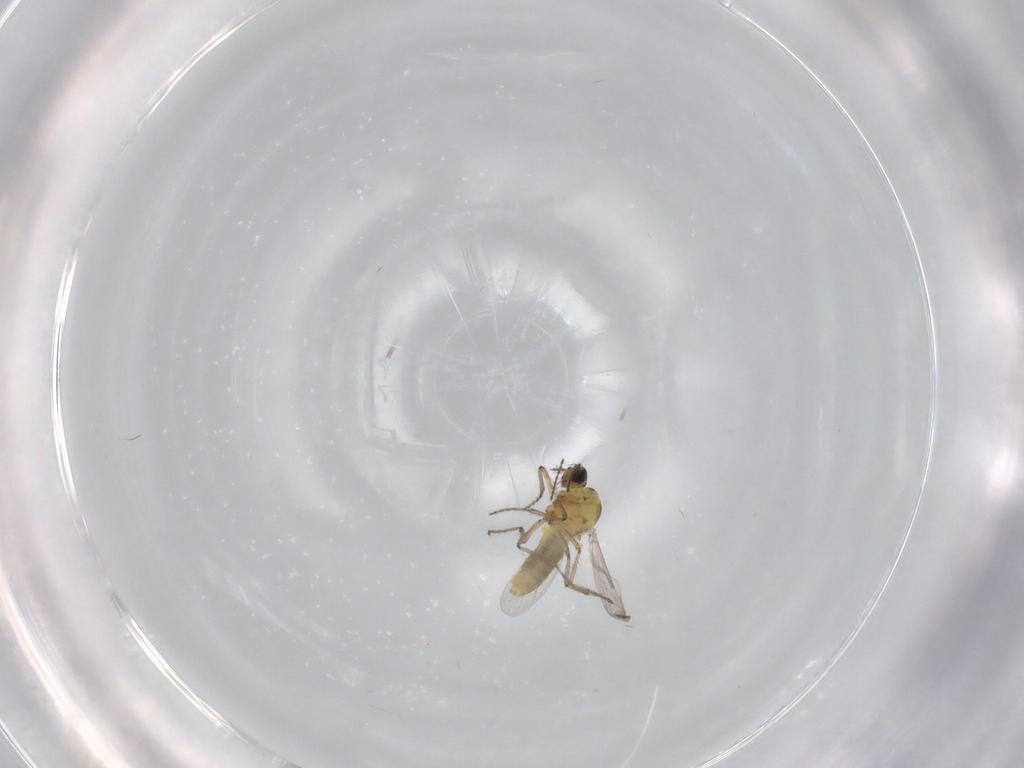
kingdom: Animalia
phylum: Arthropoda
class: Insecta
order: Diptera
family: Ceratopogonidae
